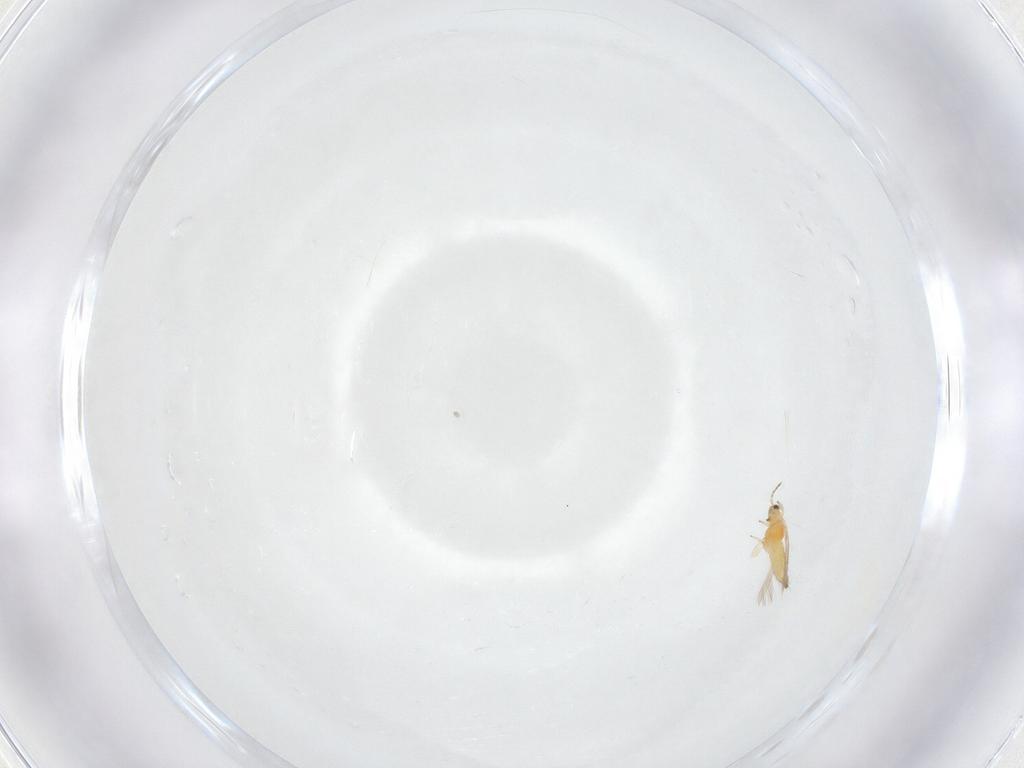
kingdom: Animalia
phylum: Arthropoda
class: Insecta
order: Thysanoptera
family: Thripidae
